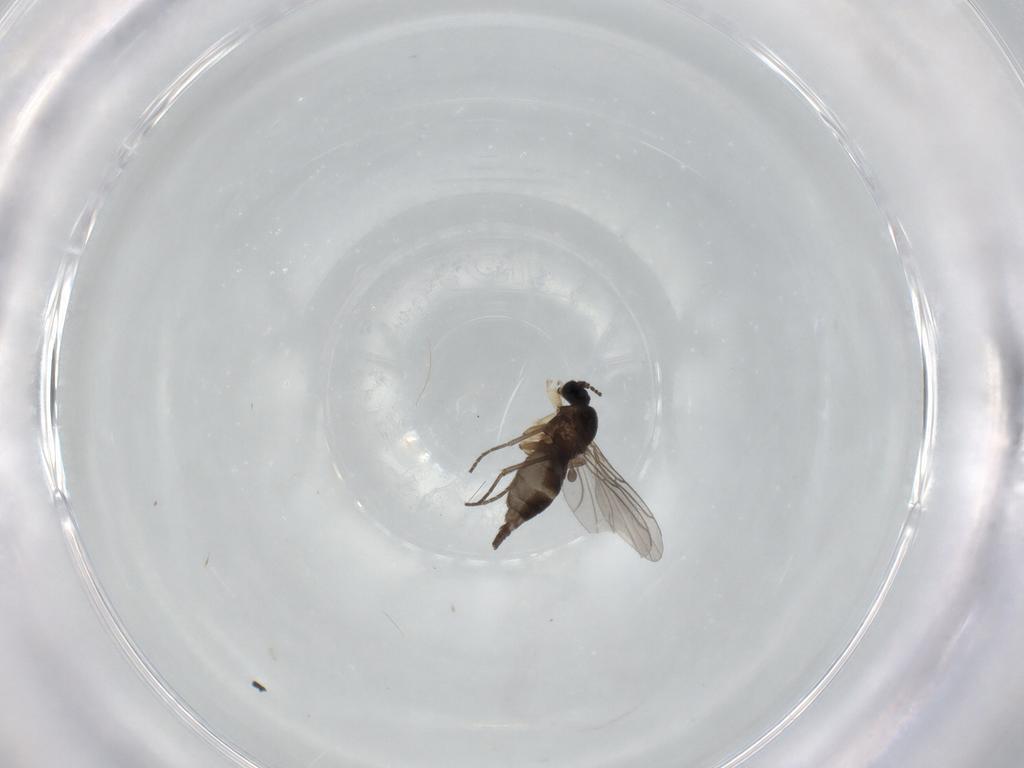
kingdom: Animalia
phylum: Arthropoda
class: Insecta
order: Diptera
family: Sciaridae
